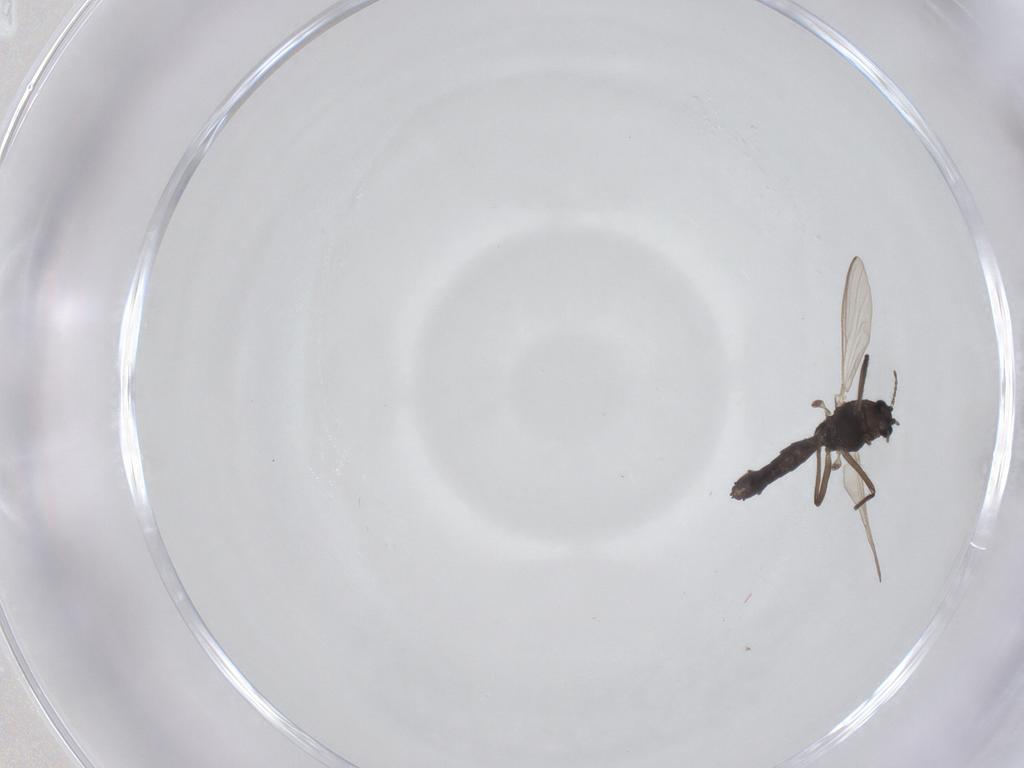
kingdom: Animalia
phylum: Arthropoda
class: Insecta
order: Diptera
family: Chironomidae
